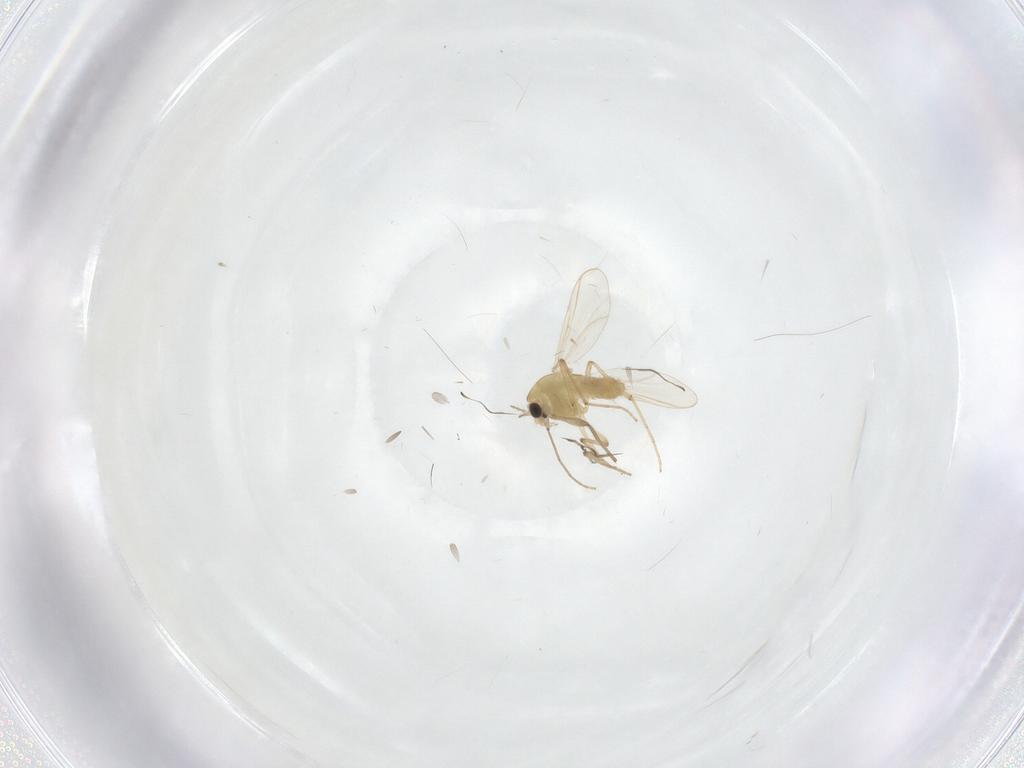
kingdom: Animalia
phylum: Arthropoda
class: Insecta
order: Diptera
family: Chironomidae
